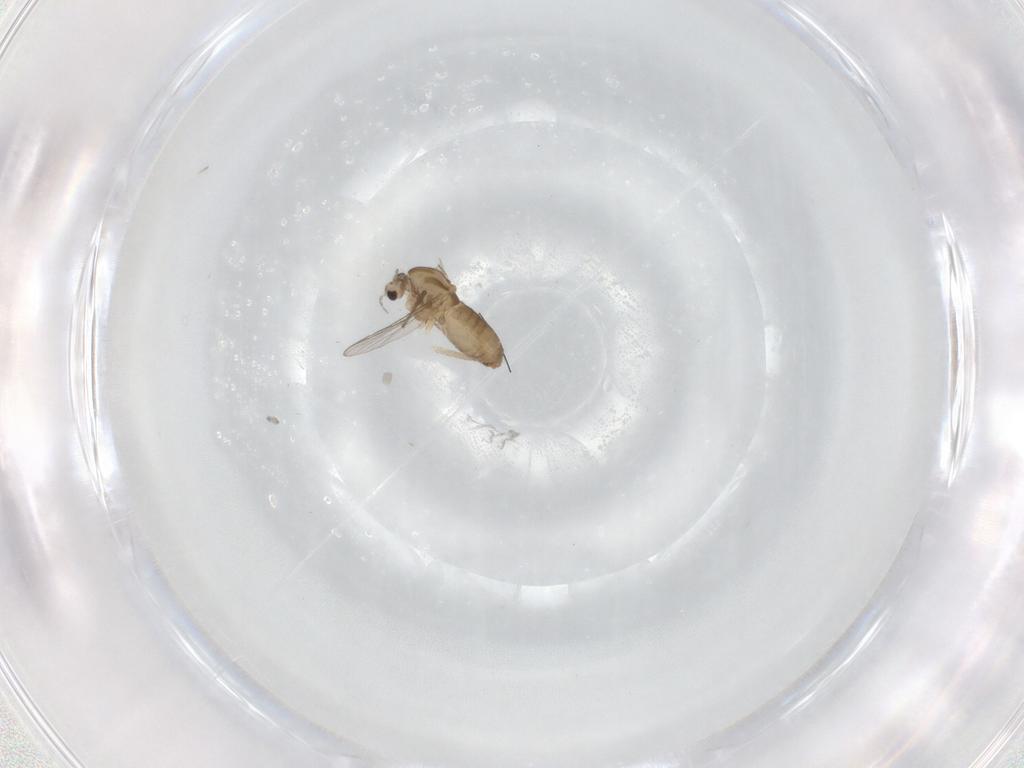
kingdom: Animalia
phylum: Arthropoda
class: Insecta
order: Diptera
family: Chironomidae
